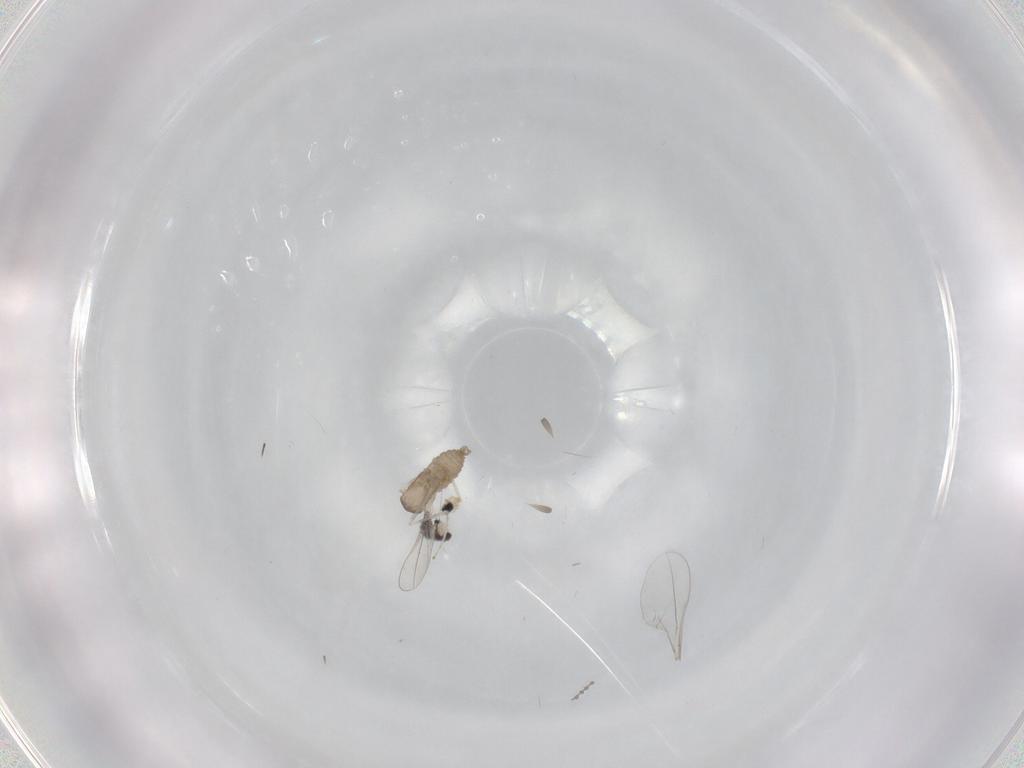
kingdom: Animalia
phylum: Arthropoda
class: Insecta
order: Diptera
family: Cecidomyiidae
